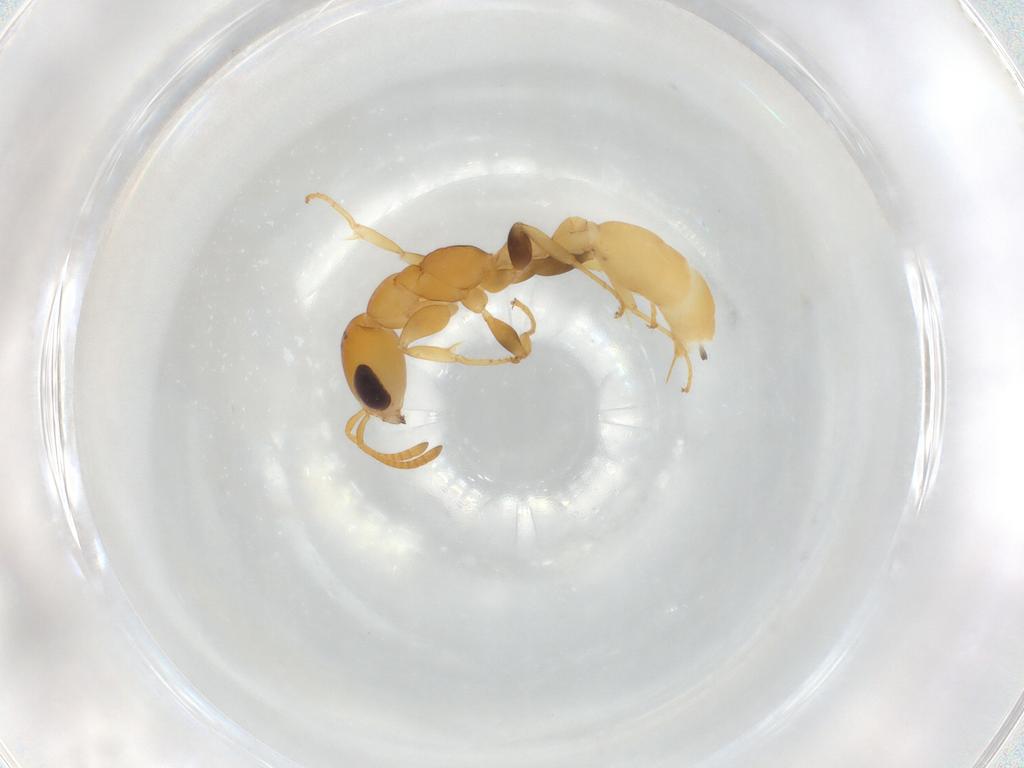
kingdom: Animalia
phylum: Arthropoda
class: Insecta
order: Hymenoptera
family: Formicidae
